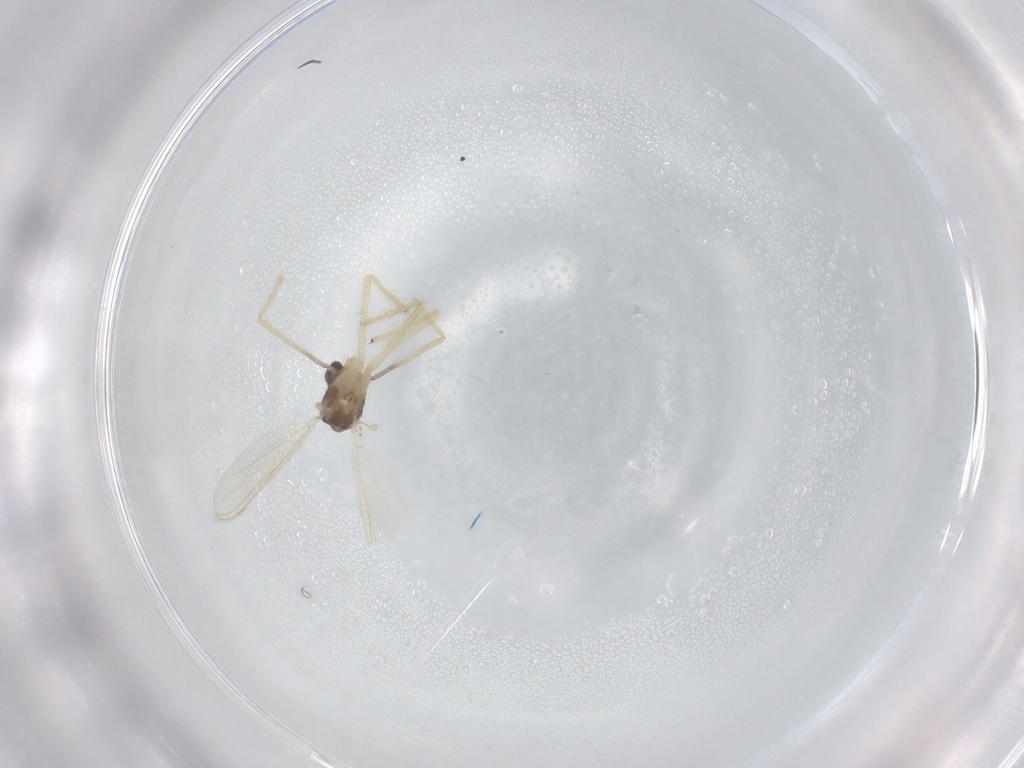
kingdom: Animalia
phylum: Arthropoda
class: Insecta
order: Diptera
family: Chironomidae
